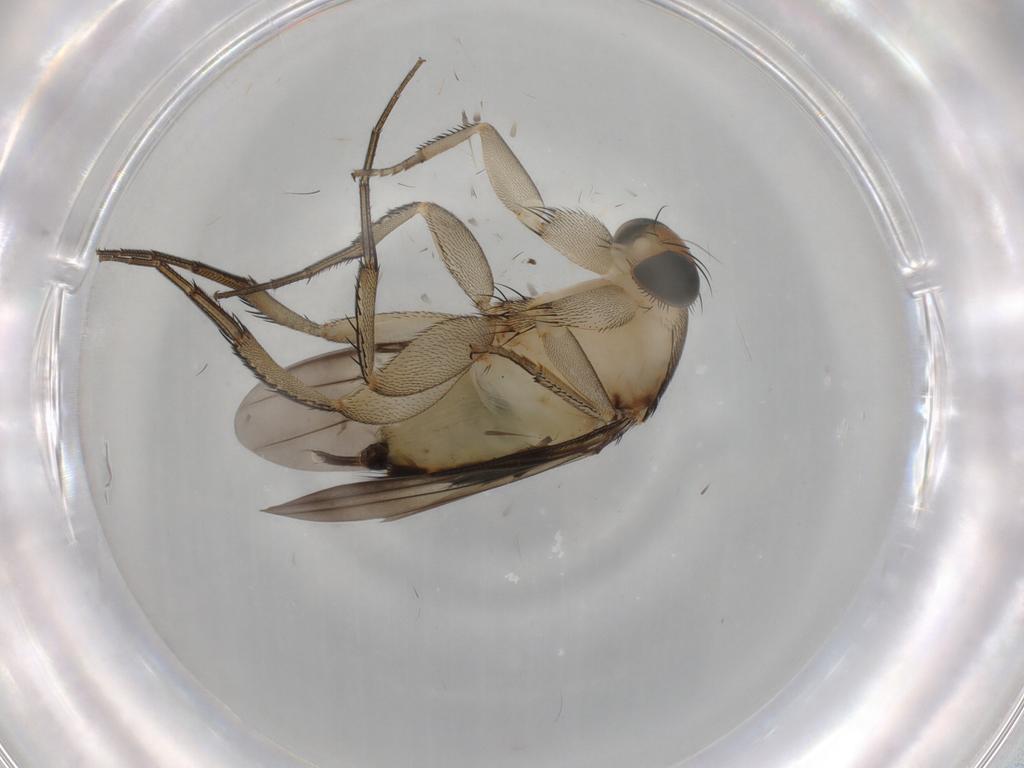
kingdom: Animalia
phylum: Arthropoda
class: Insecta
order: Diptera
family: Phoridae
